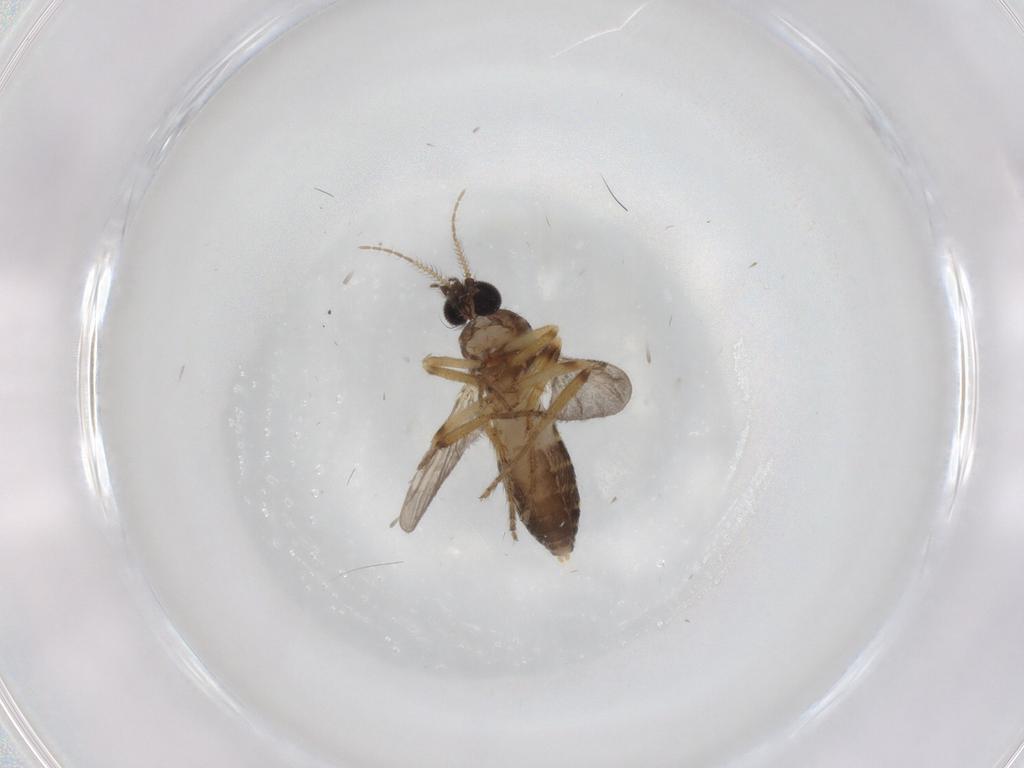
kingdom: Animalia
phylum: Arthropoda
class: Insecta
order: Diptera
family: Ceratopogonidae
